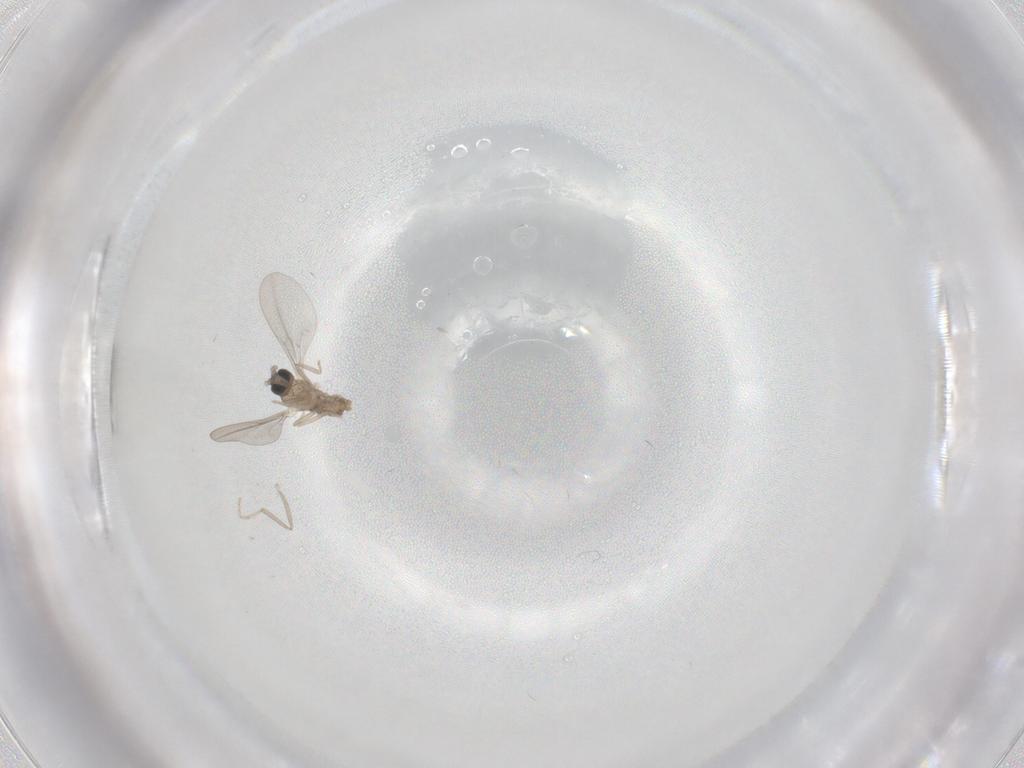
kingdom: Animalia
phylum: Arthropoda
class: Insecta
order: Diptera
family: Cecidomyiidae
